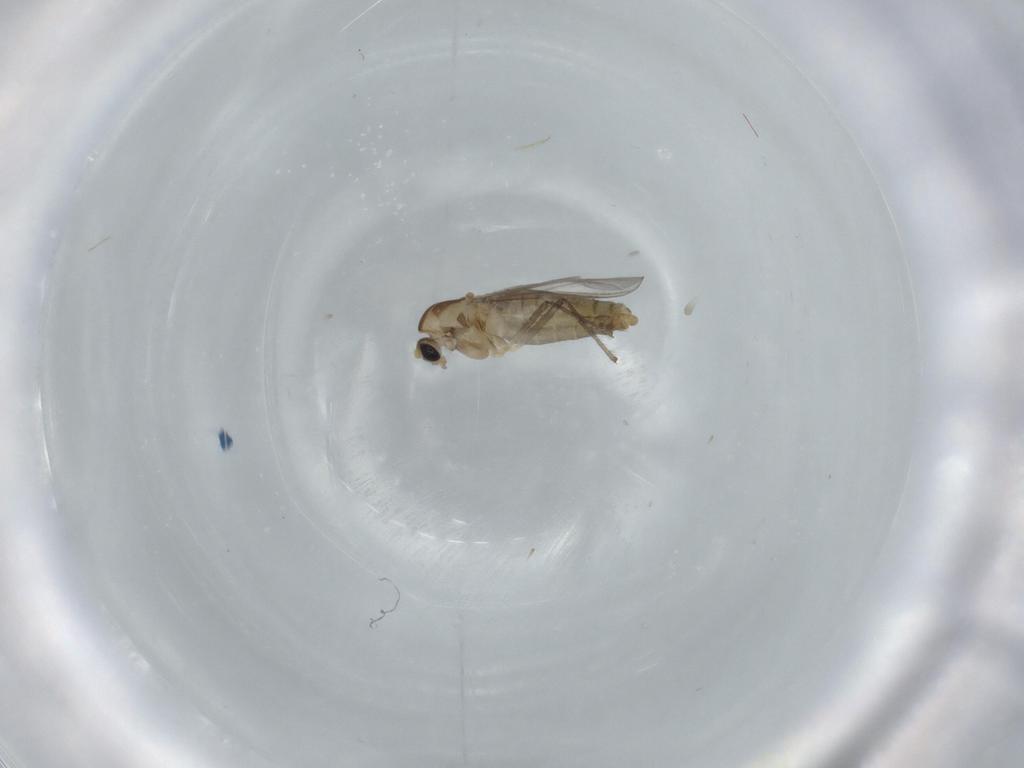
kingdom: Animalia
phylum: Arthropoda
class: Insecta
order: Diptera
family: Chironomidae
